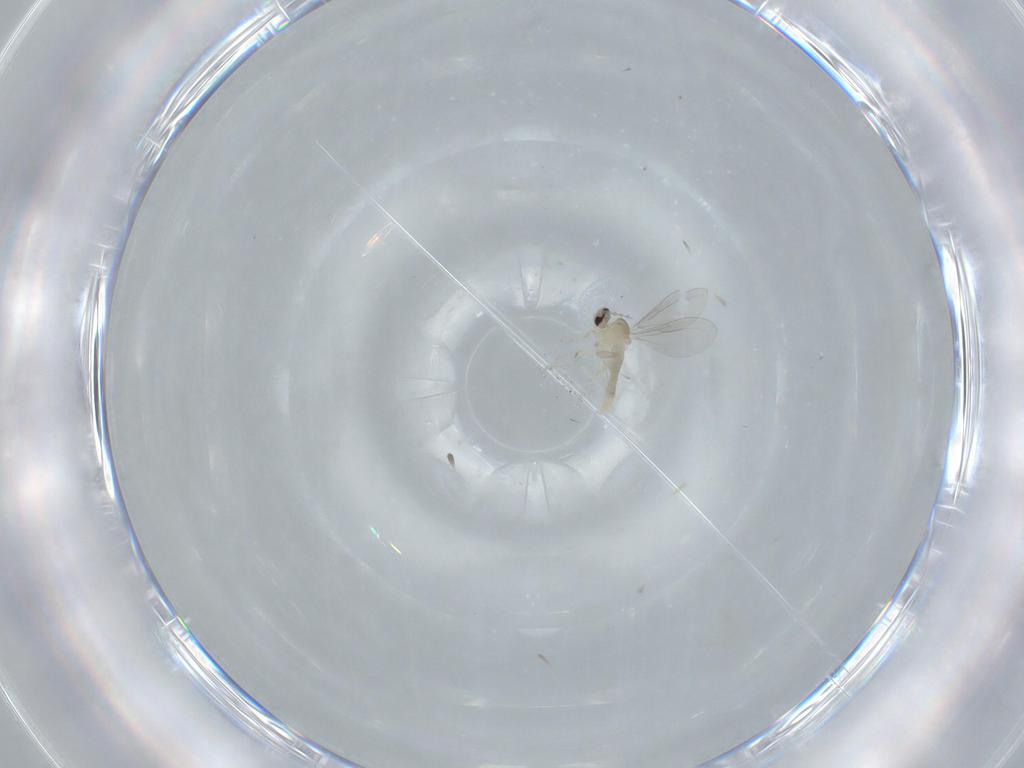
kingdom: Animalia
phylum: Arthropoda
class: Insecta
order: Diptera
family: Cecidomyiidae
